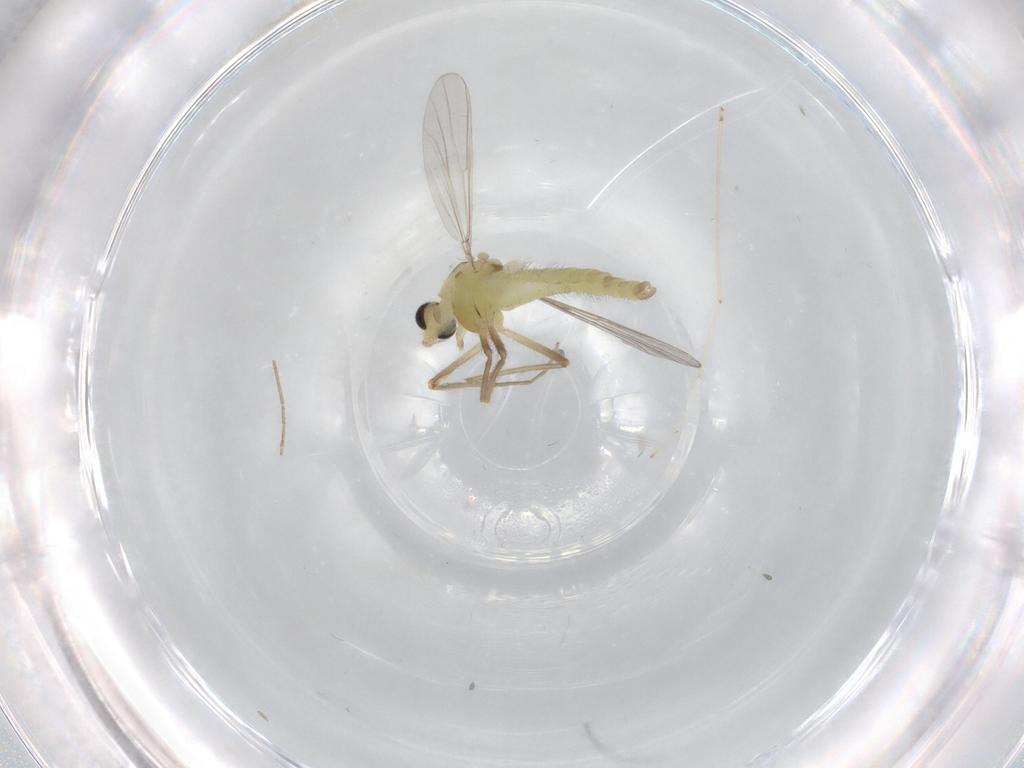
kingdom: Animalia
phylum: Arthropoda
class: Insecta
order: Diptera
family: Chironomidae
